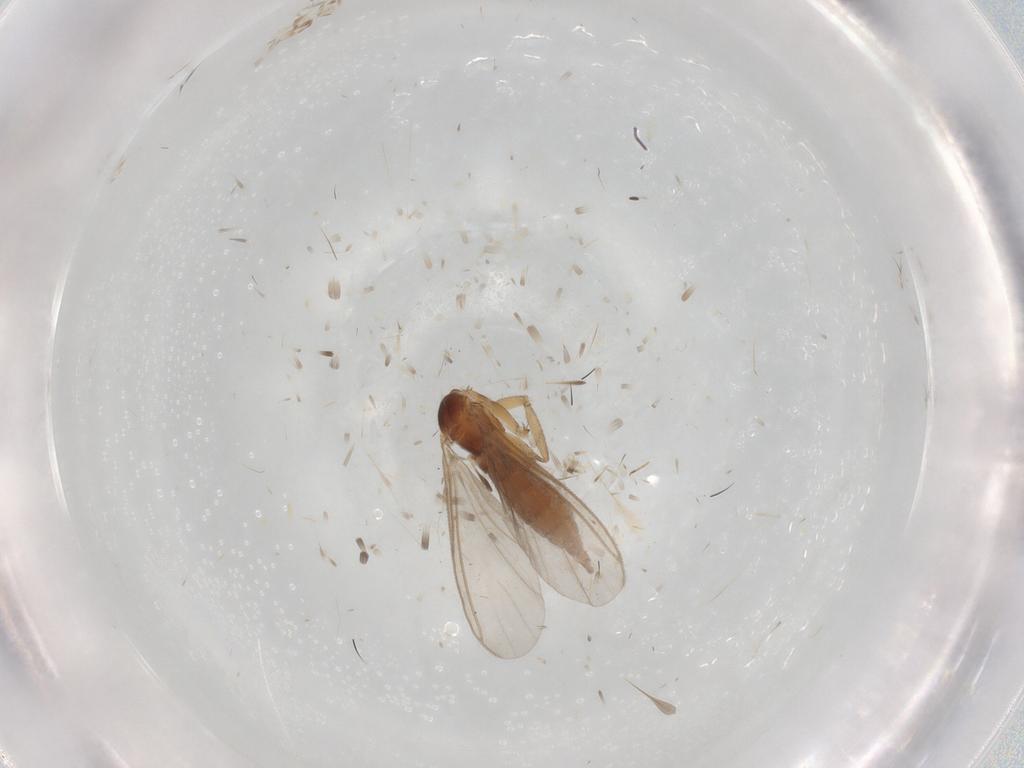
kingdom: Animalia
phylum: Arthropoda
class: Insecta
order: Diptera
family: Sciaridae
